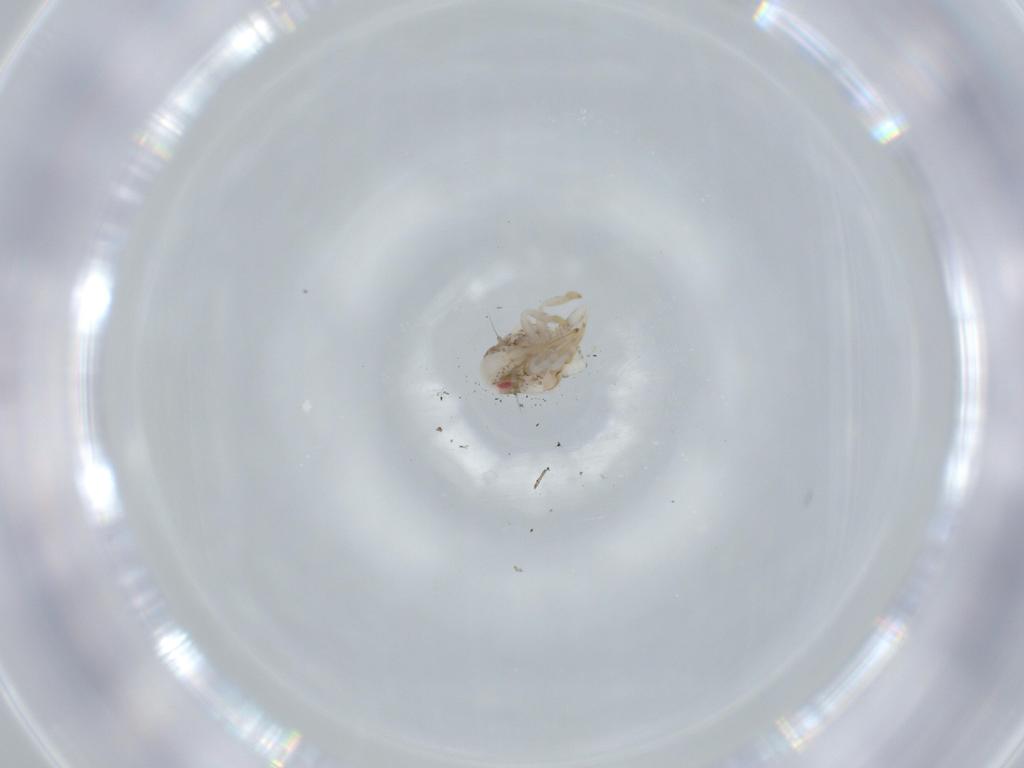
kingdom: Animalia
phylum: Arthropoda
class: Insecta
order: Hemiptera
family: Acanaloniidae
